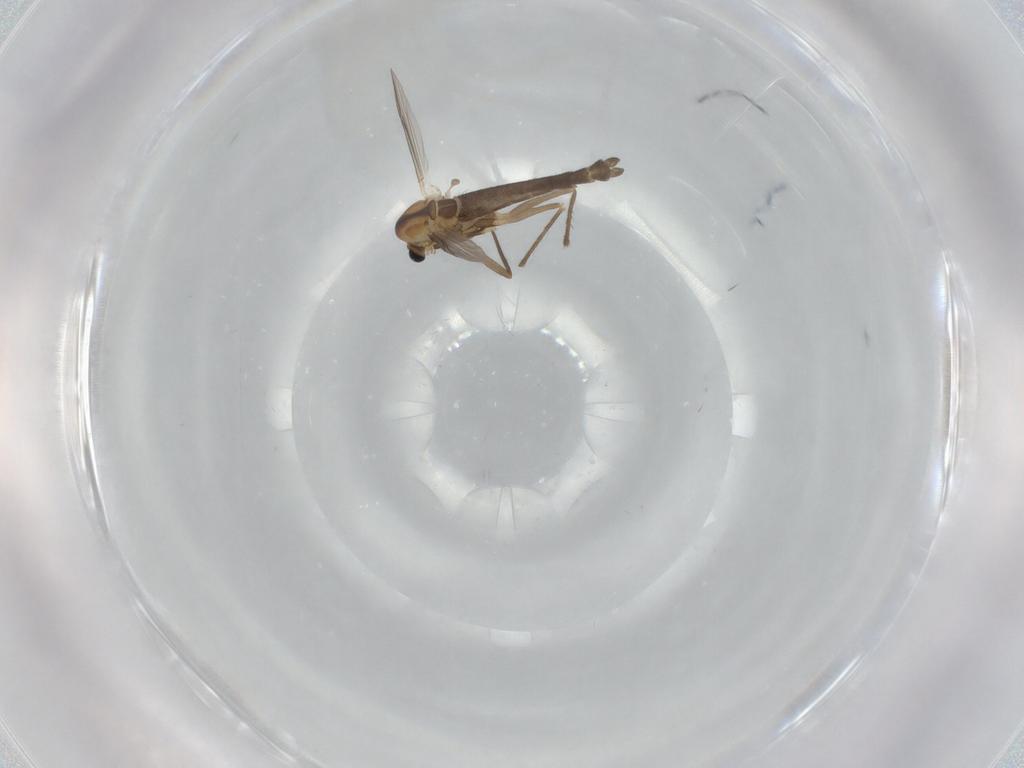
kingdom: Animalia
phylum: Arthropoda
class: Insecta
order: Diptera
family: Chironomidae
